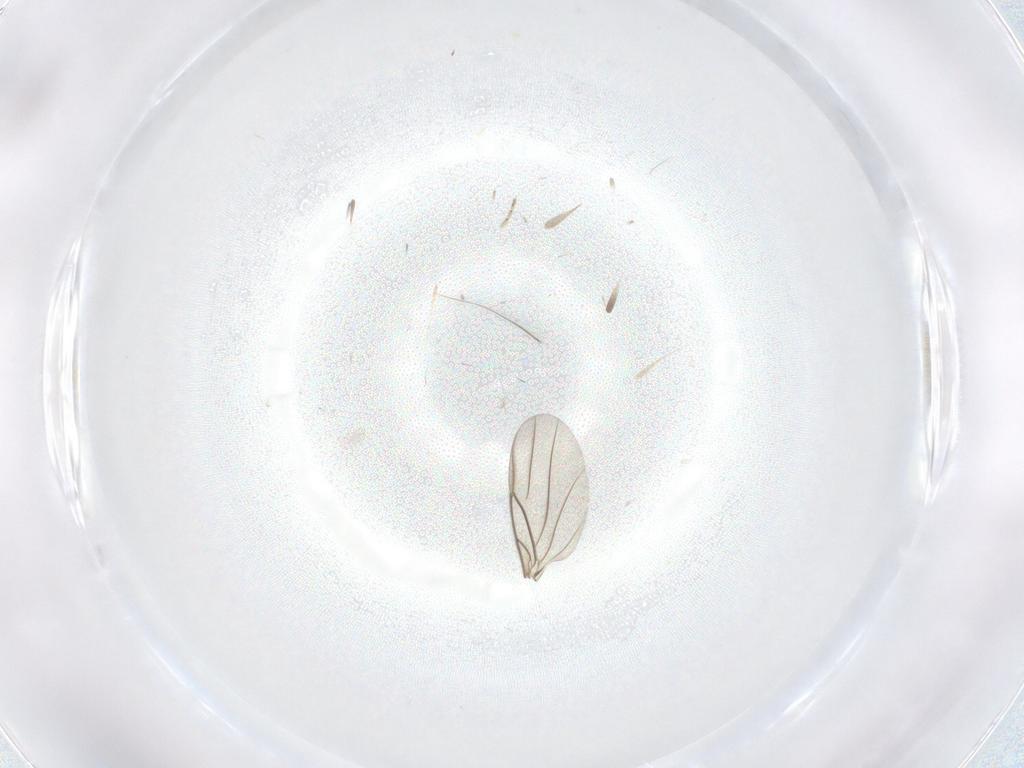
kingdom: Animalia
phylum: Arthropoda
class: Insecta
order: Diptera
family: Phoridae
